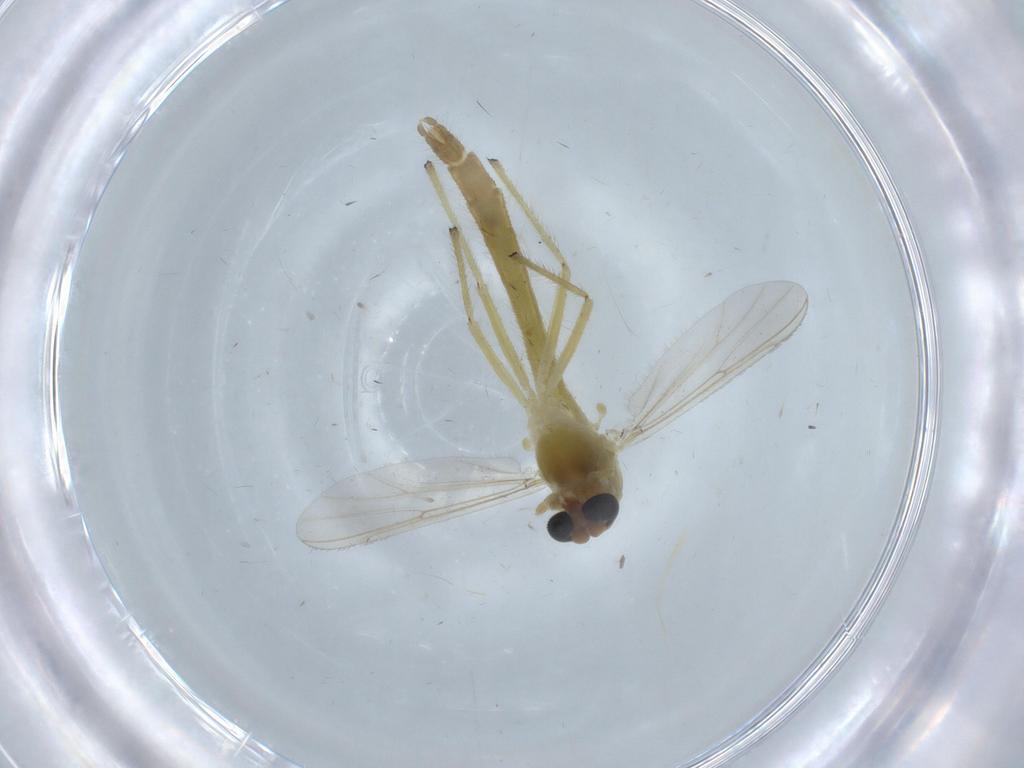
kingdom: Animalia
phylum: Arthropoda
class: Insecta
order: Diptera
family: Chironomidae
